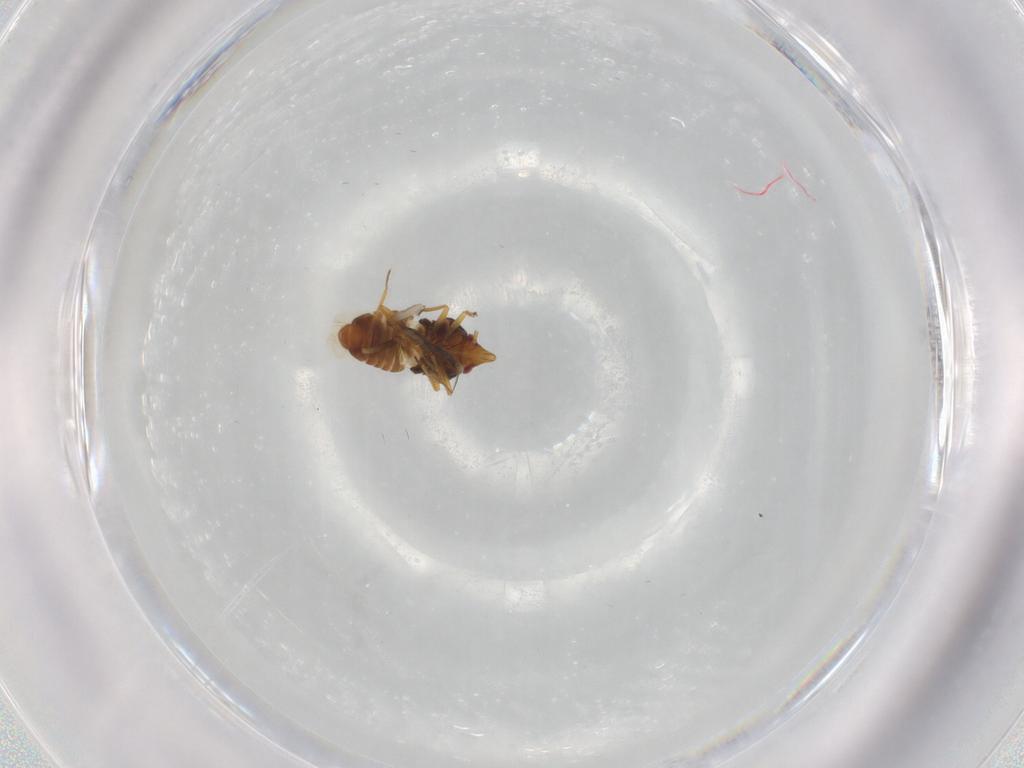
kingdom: Animalia
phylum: Arthropoda
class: Insecta
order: Hemiptera
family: Schizopteridae
